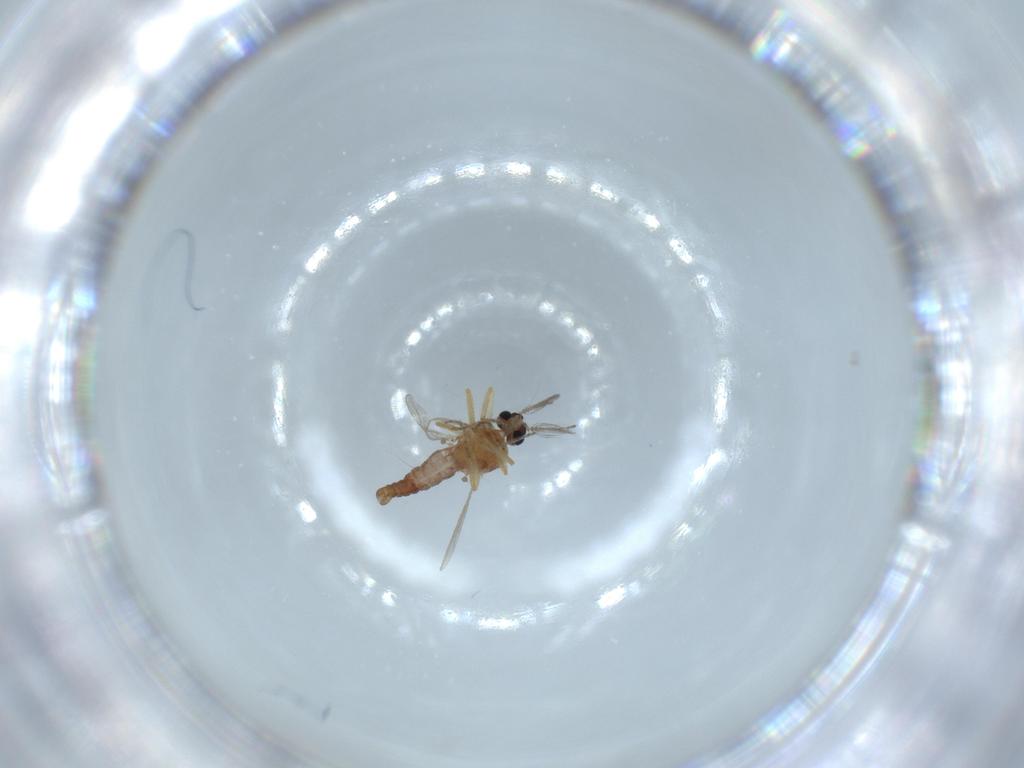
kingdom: Animalia
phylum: Arthropoda
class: Insecta
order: Diptera
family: Ceratopogonidae
